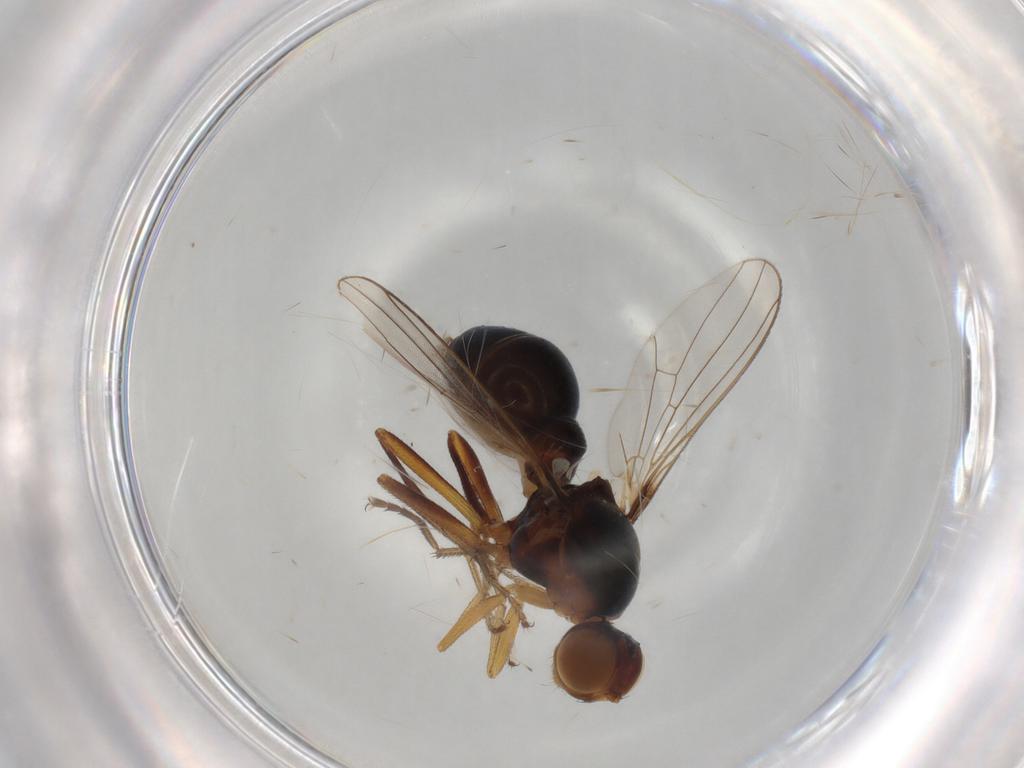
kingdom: Animalia
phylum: Arthropoda
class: Insecta
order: Diptera
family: Sepsidae
